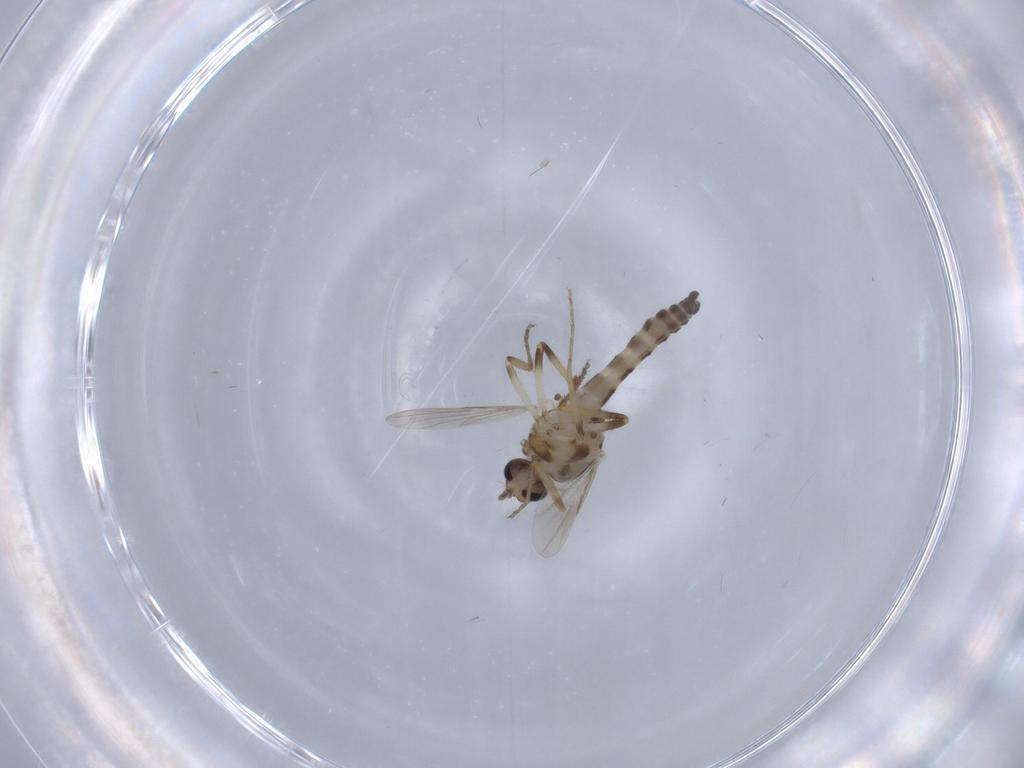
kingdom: Animalia
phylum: Arthropoda
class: Insecta
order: Diptera
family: Ceratopogonidae
